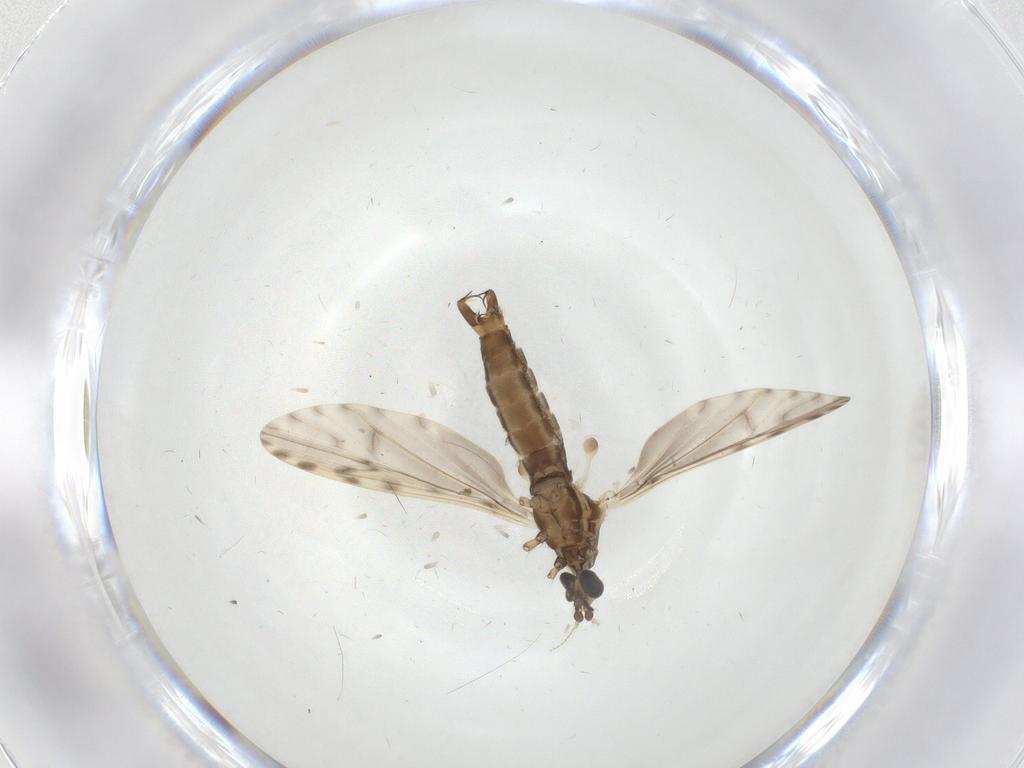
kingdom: Animalia
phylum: Arthropoda
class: Insecta
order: Diptera
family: Limoniidae
